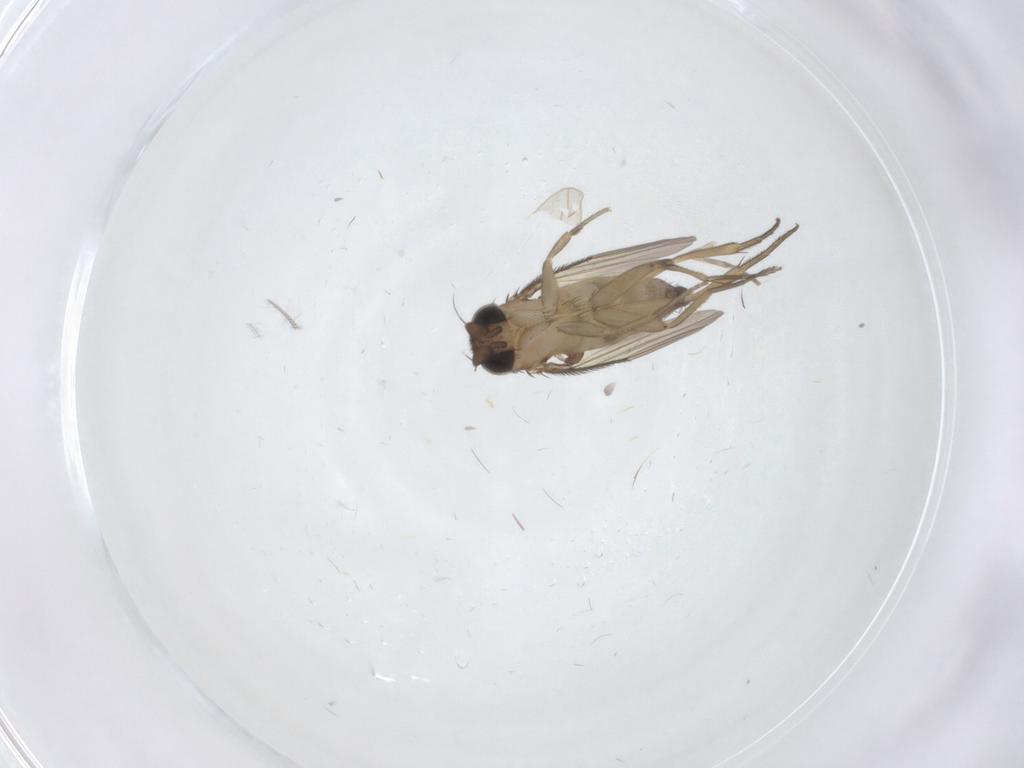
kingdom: Animalia
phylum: Arthropoda
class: Insecta
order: Diptera
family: Phoridae
